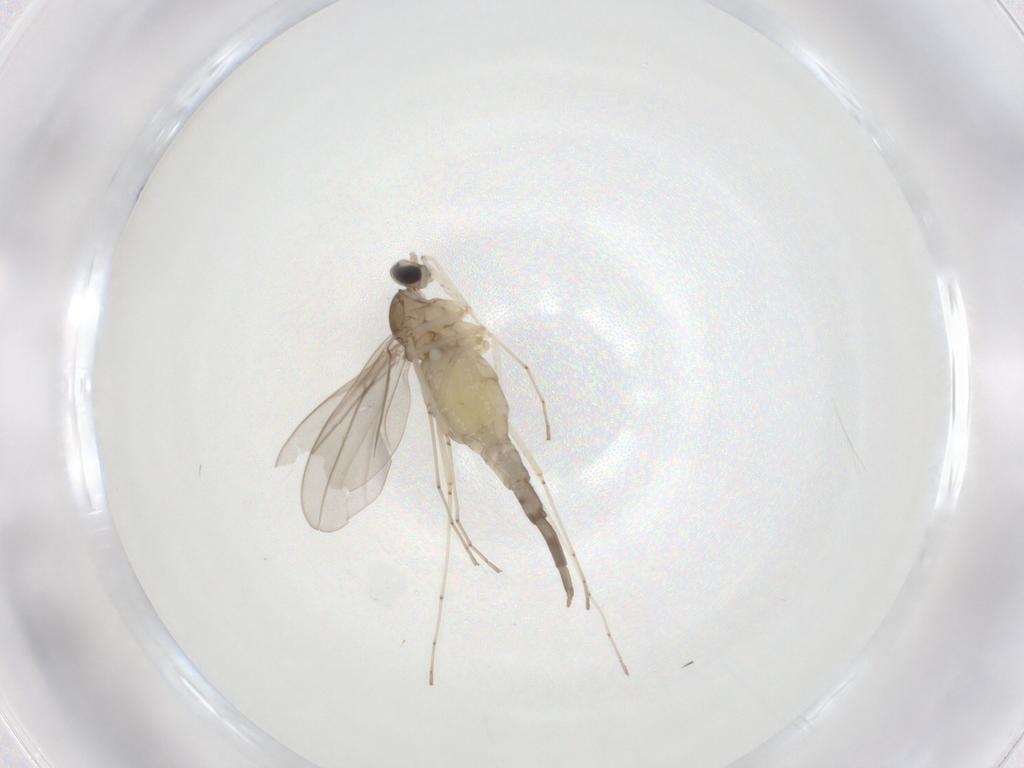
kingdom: Animalia
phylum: Arthropoda
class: Insecta
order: Diptera
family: Cecidomyiidae
